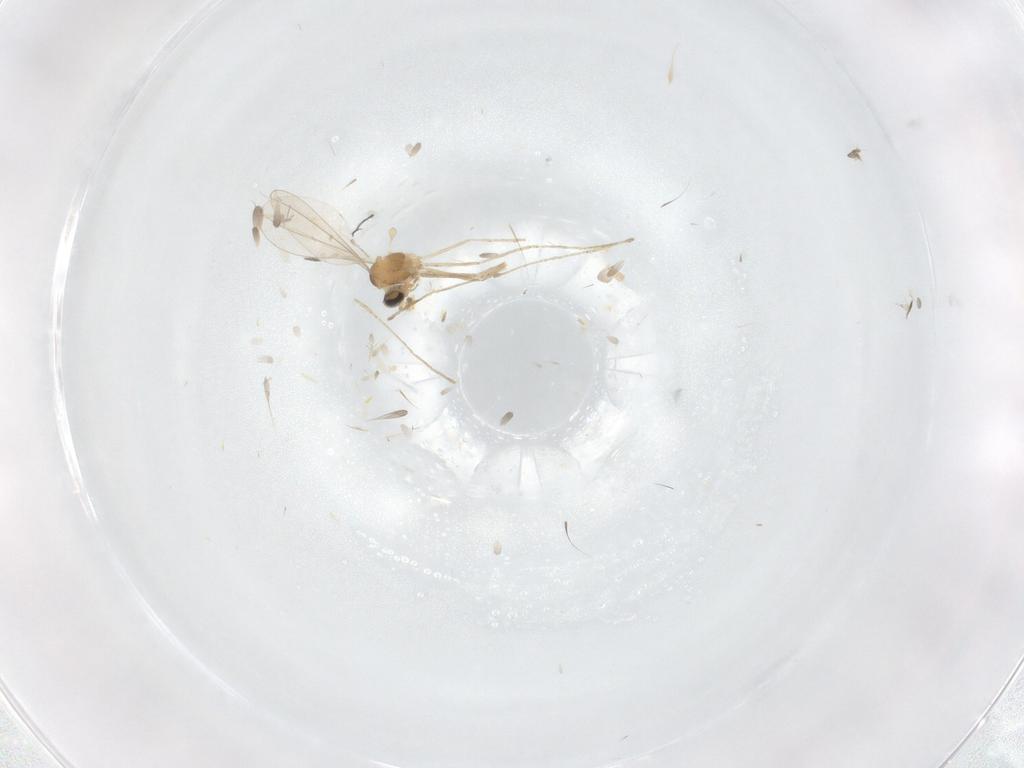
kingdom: Animalia
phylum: Arthropoda
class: Insecta
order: Diptera
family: Cecidomyiidae
